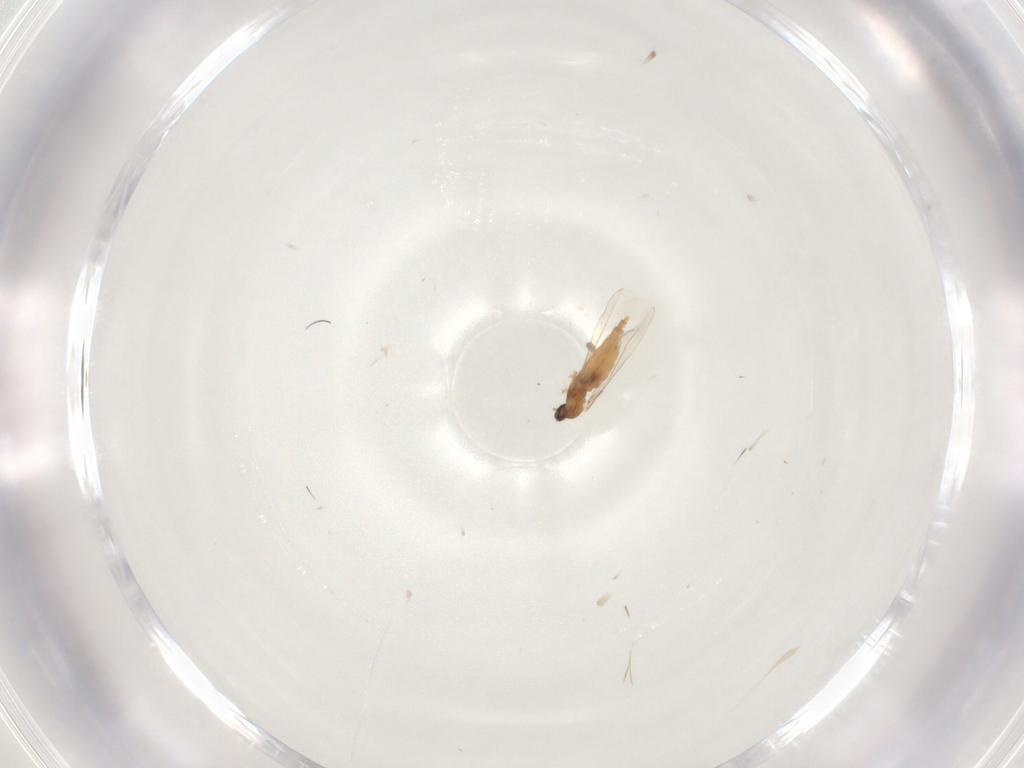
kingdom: Animalia
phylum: Arthropoda
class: Insecta
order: Diptera
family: Cecidomyiidae
